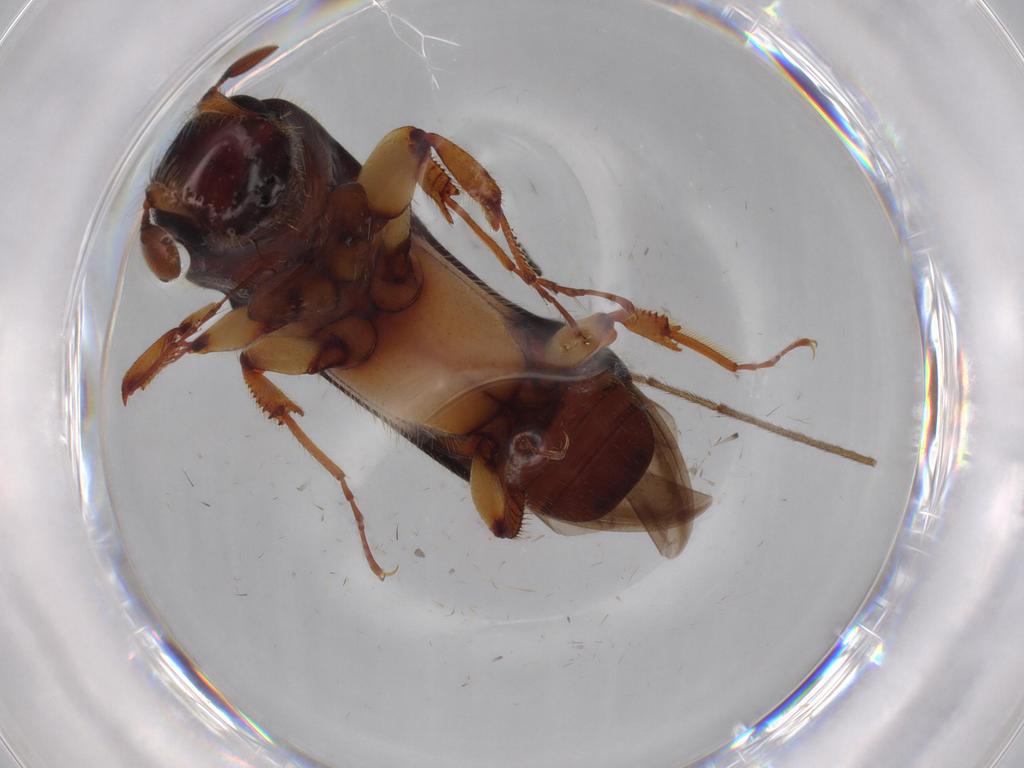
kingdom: Animalia
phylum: Arthropoda
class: Insecta
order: Coleoptera
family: Curculionidae
